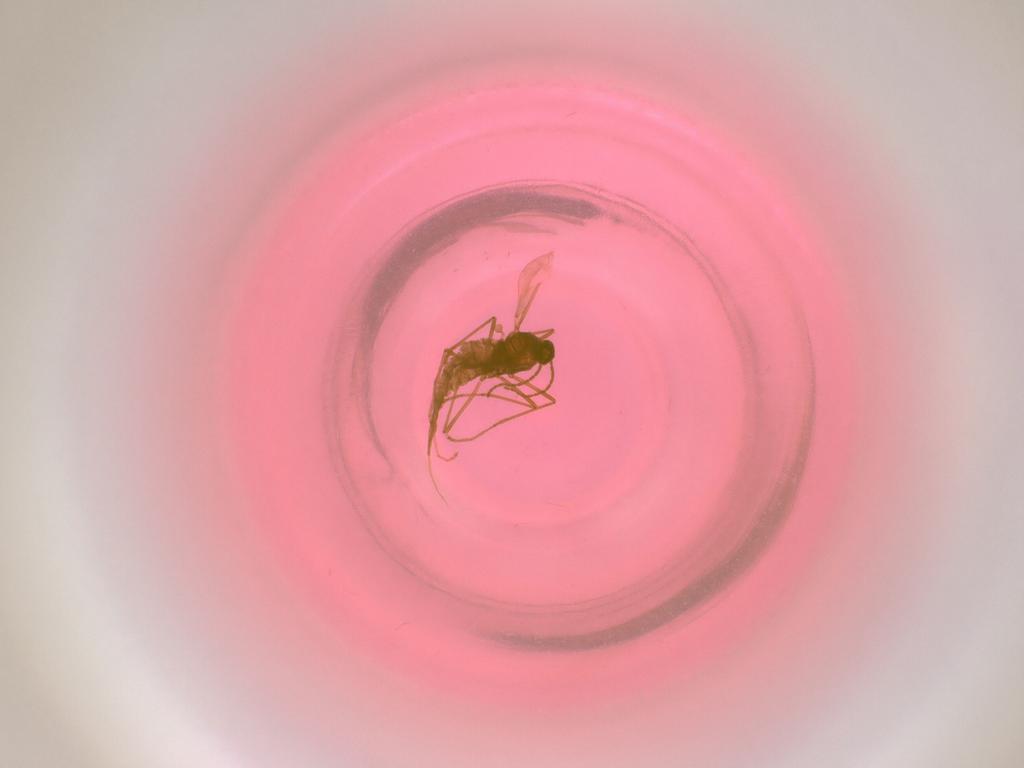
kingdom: Animalia
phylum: Arthropoda
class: Insecta
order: Diptera
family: Cecidomyiidae
